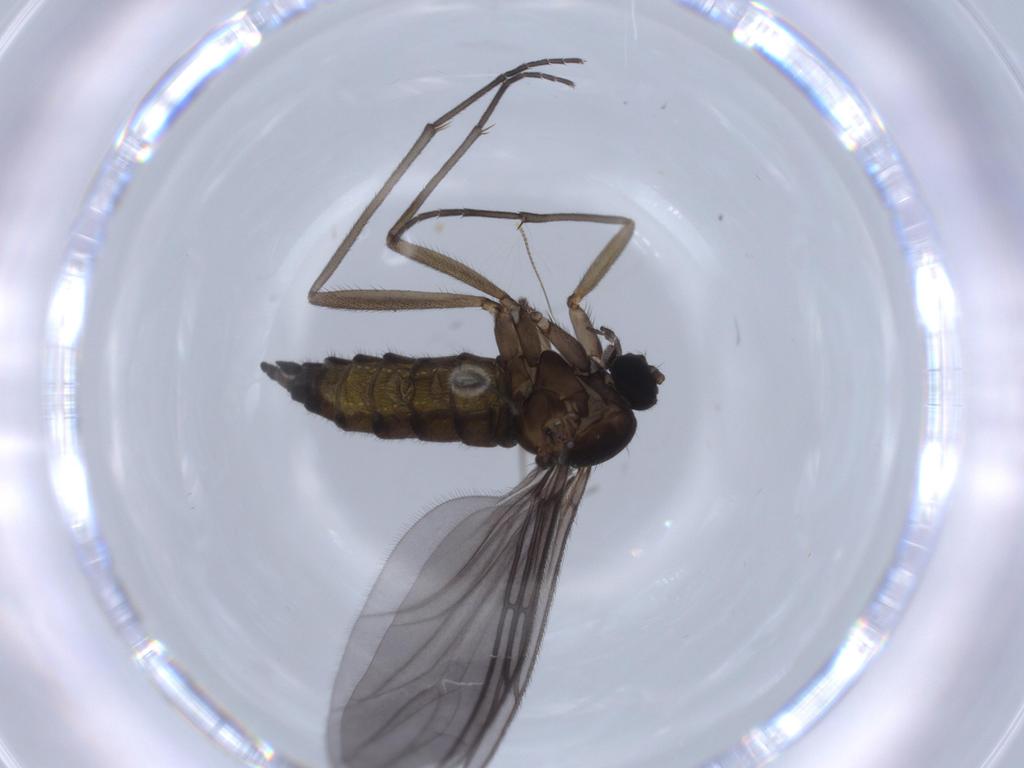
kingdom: Animalia
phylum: Arthropoda
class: Insecta
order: Diptera
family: Sciaridae
